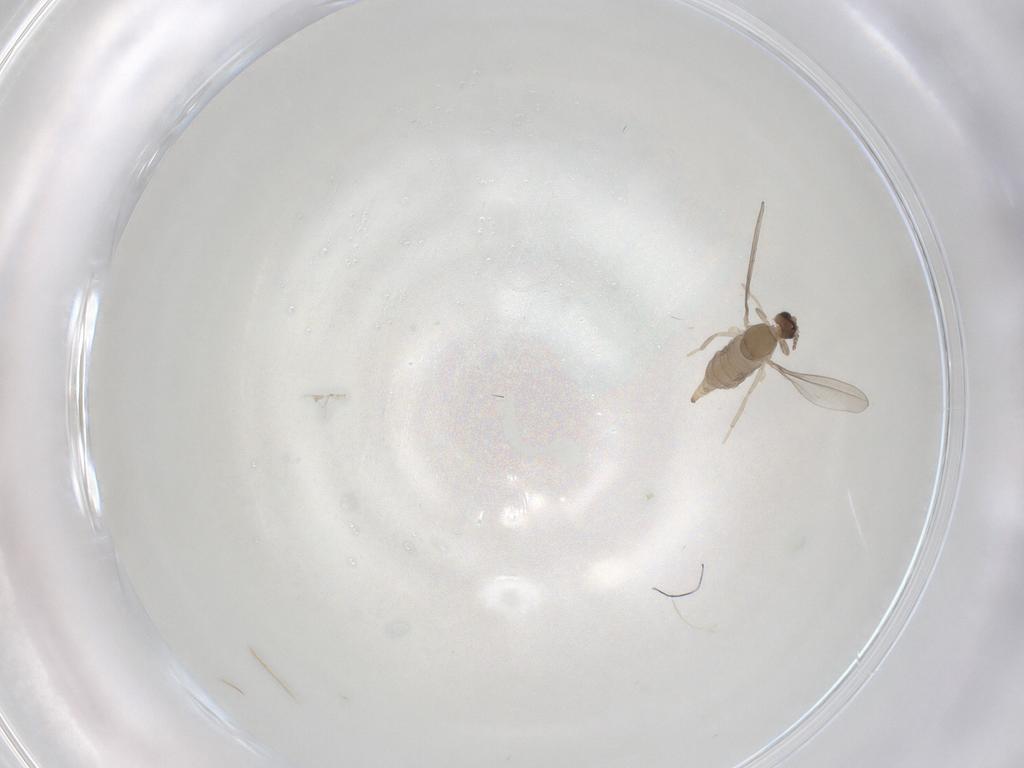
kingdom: Animalia
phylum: Arthropoda
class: Insecta
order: Diptera
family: Cecidomyiidae
